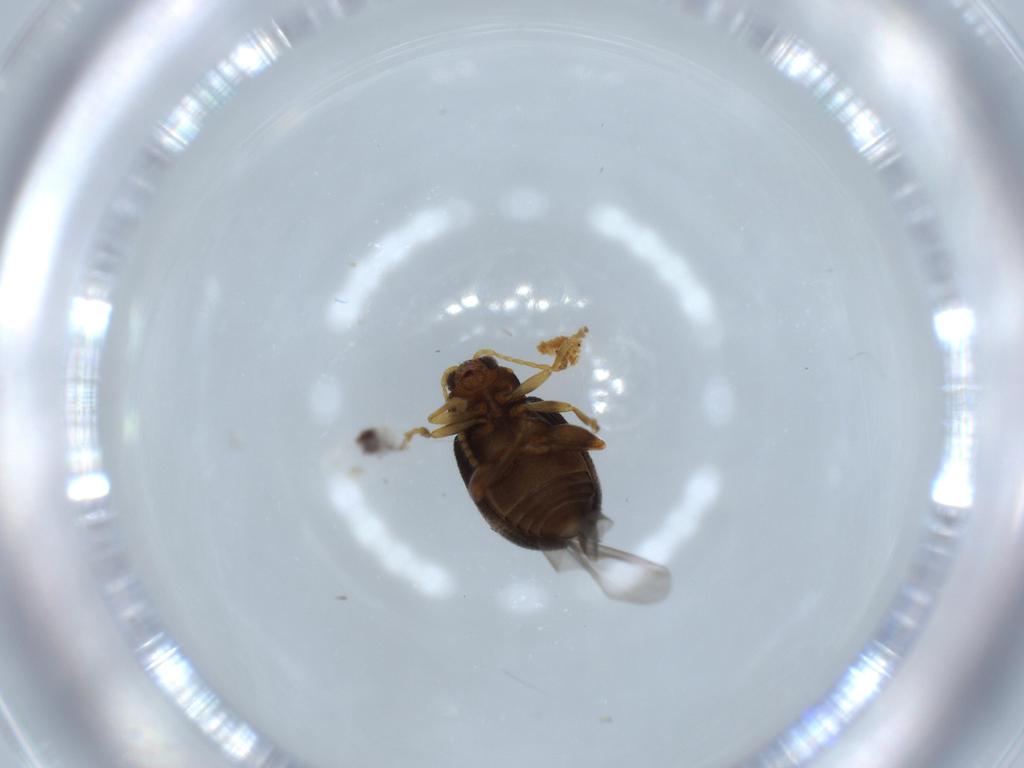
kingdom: Animalia
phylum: Arthropoda
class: Insecta
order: Coleoptera
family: Chrysomelidae
